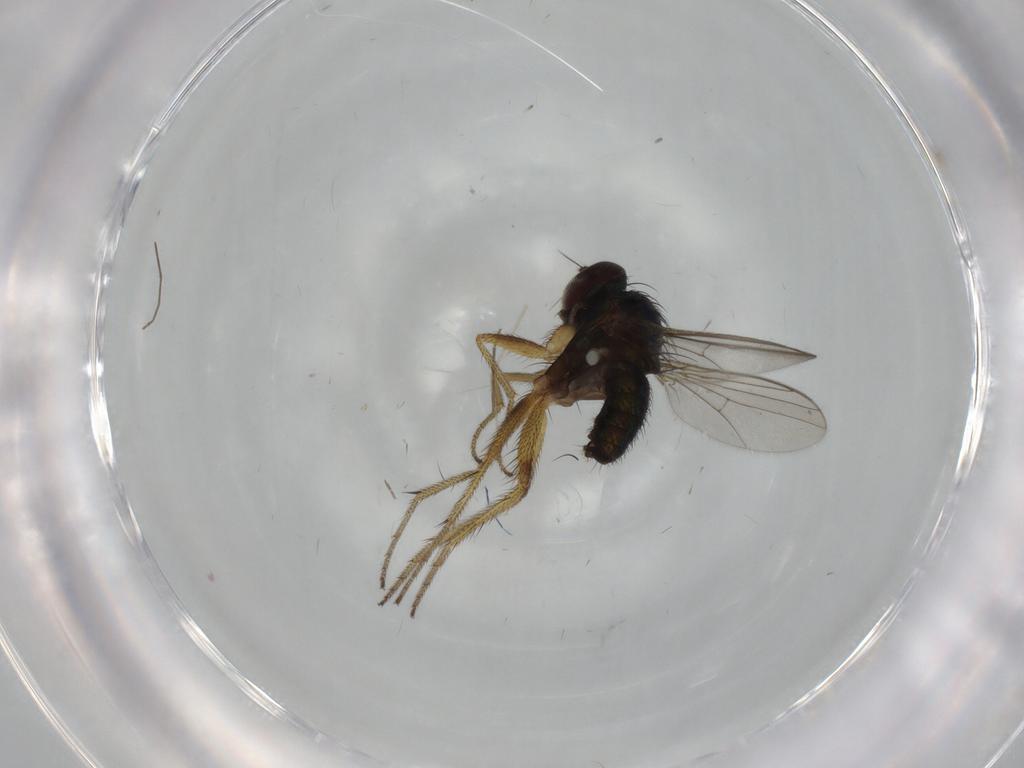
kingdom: Animalia
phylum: Arthropoda
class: Insecta
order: Diptera
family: Dolichopodidae
